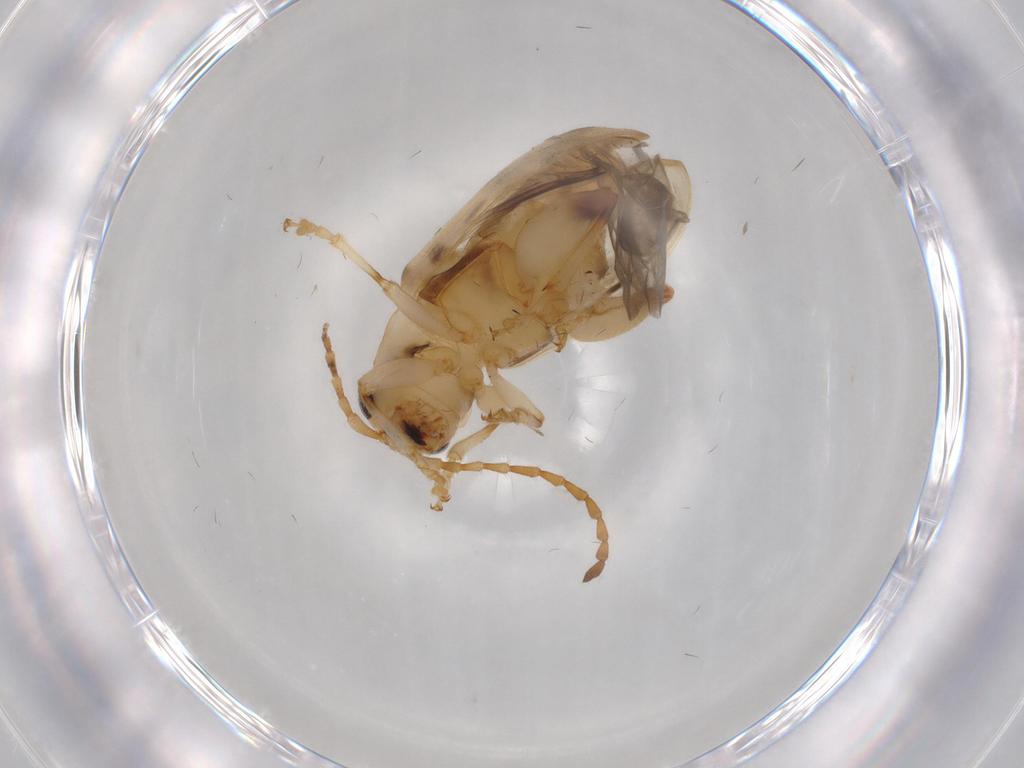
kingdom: Animalia
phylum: Arthropoda
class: Insecta
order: Coleoptera
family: Chrysomelidae
